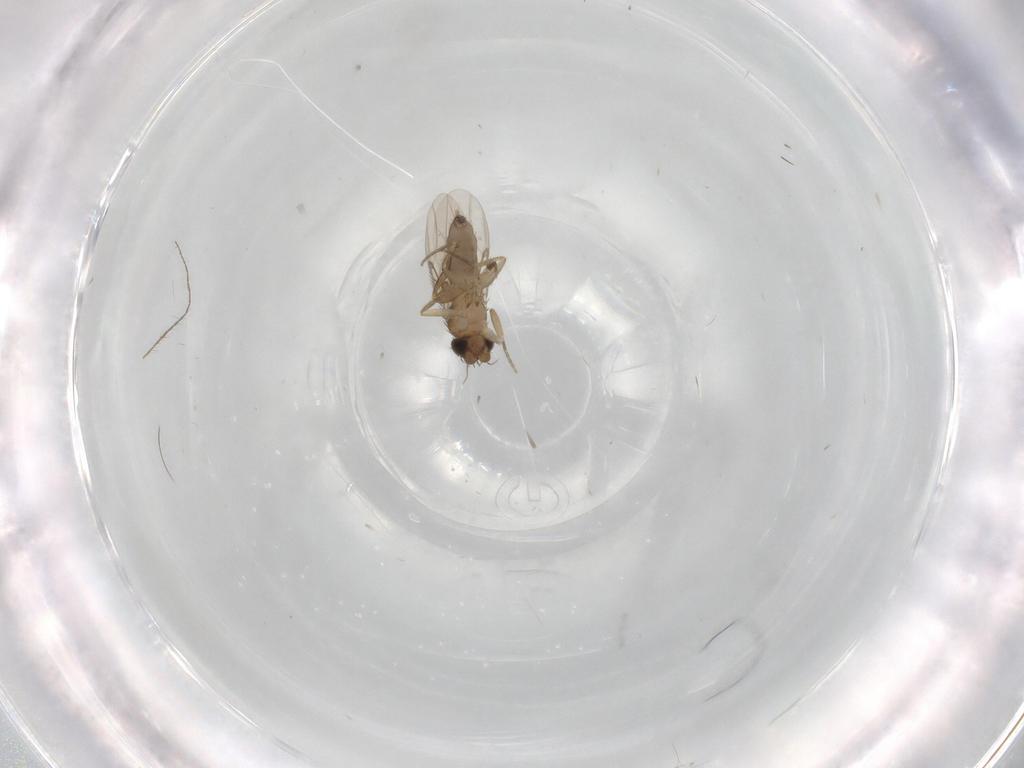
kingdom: Animalia
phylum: Arthropoda
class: Insecta
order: Diptera
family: Phoridae
